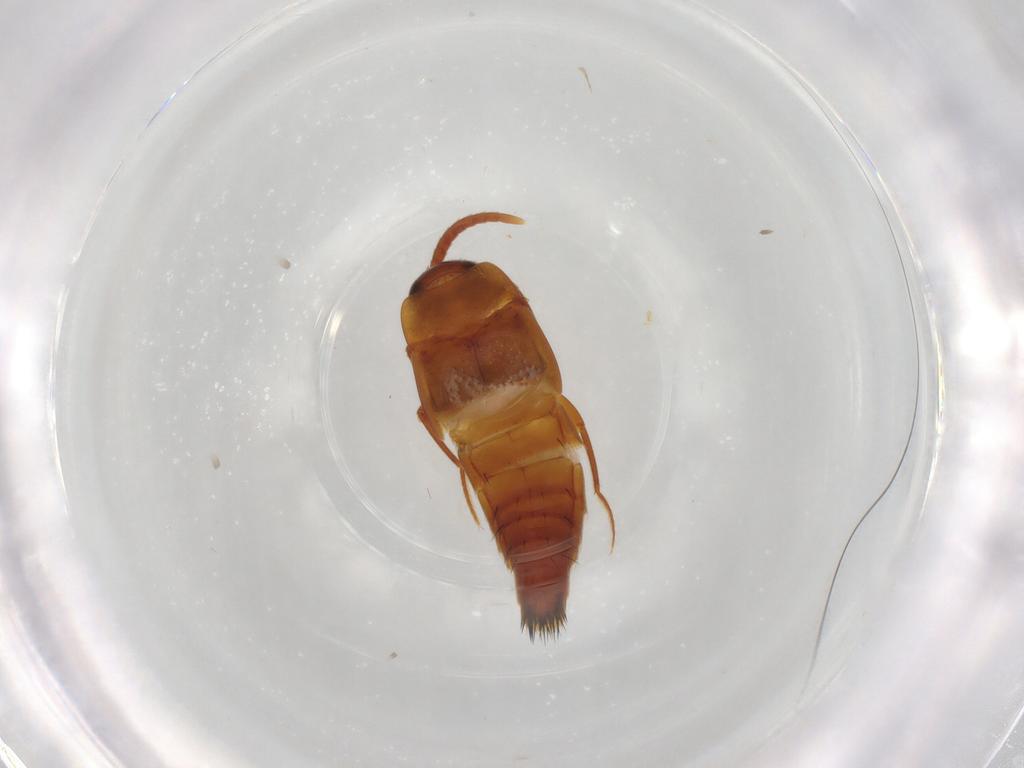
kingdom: Animalia
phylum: Arthropoda
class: Insecta
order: Coleoptera
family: Staphylinidae
